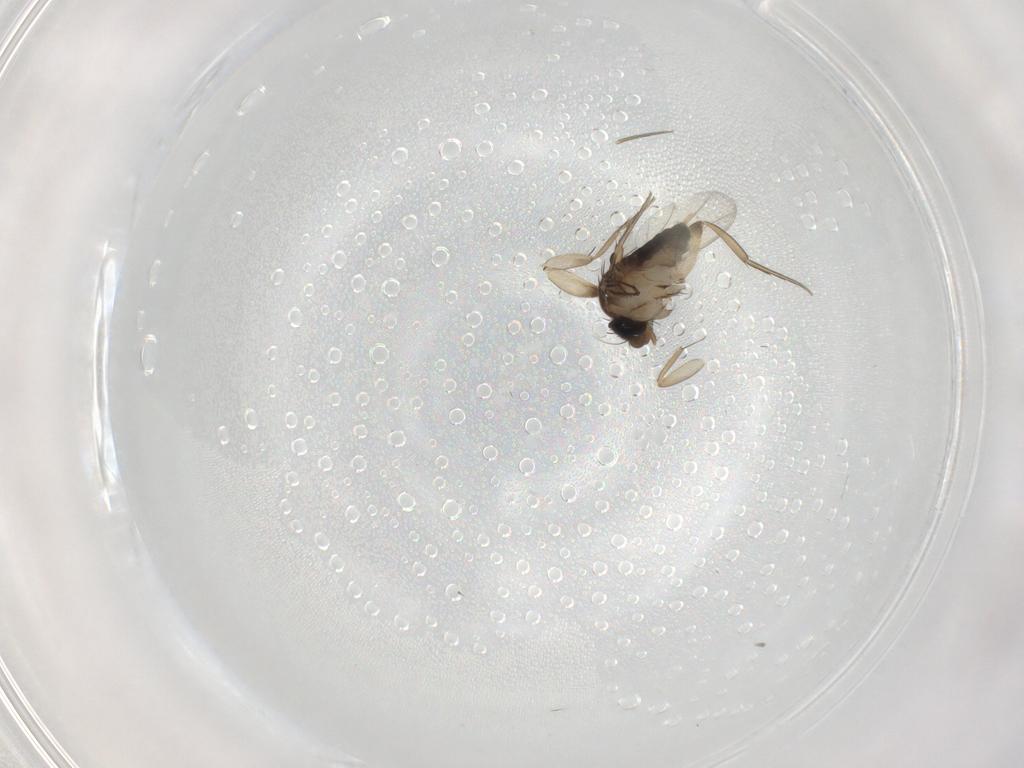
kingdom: Animalia
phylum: Arthropoda
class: Insecta
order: Diptera
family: Phoridae
